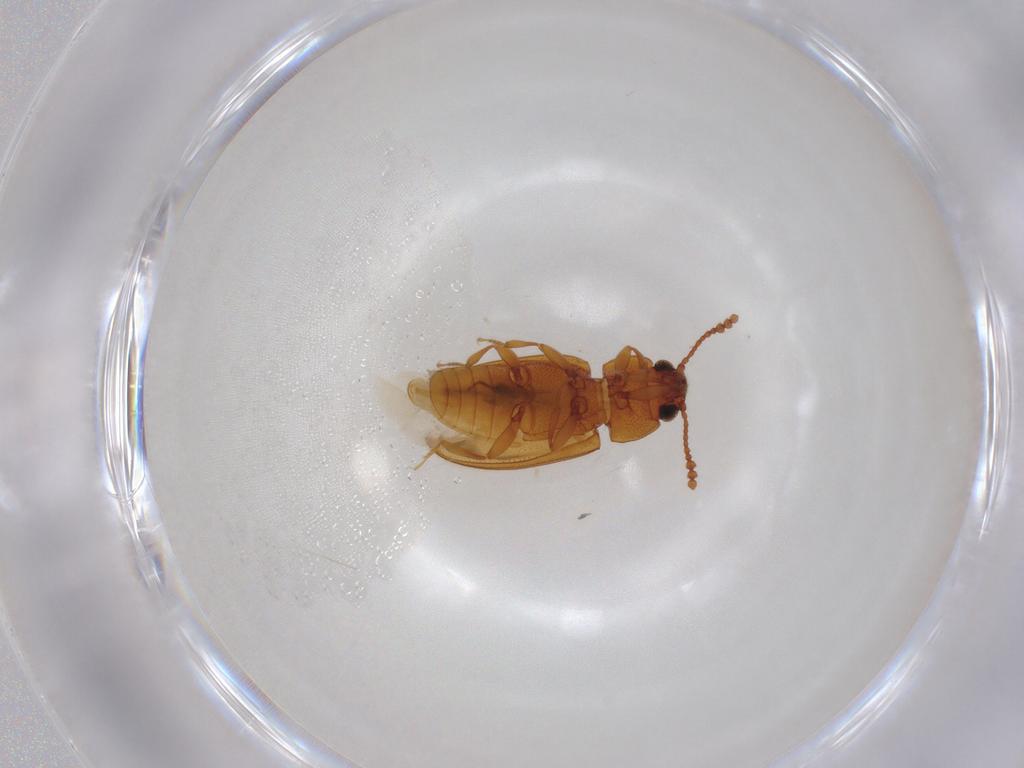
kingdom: Animalia
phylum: Arthropoda
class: Insecta
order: Coleoptera
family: Erotylidae
